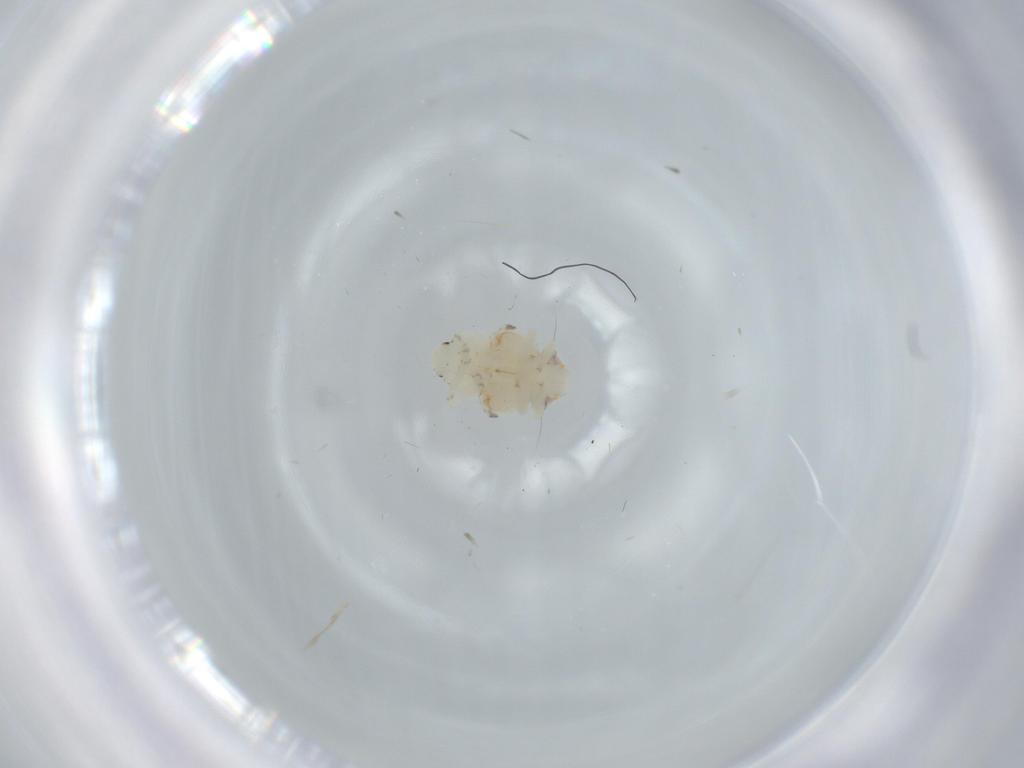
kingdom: Animalia
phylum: Arthropoda
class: Insecta
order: Hemiptera
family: Nogodinidae
